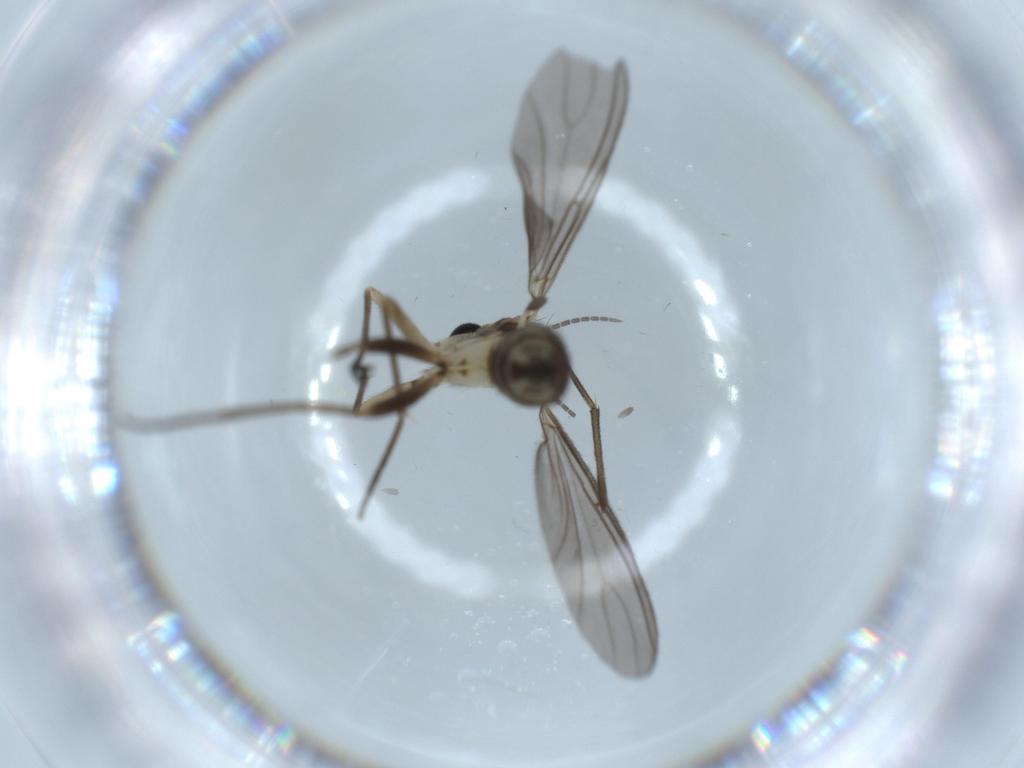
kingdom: Animalia
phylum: Arthropoda
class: Insecta
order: Diptera
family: Sciaridae
